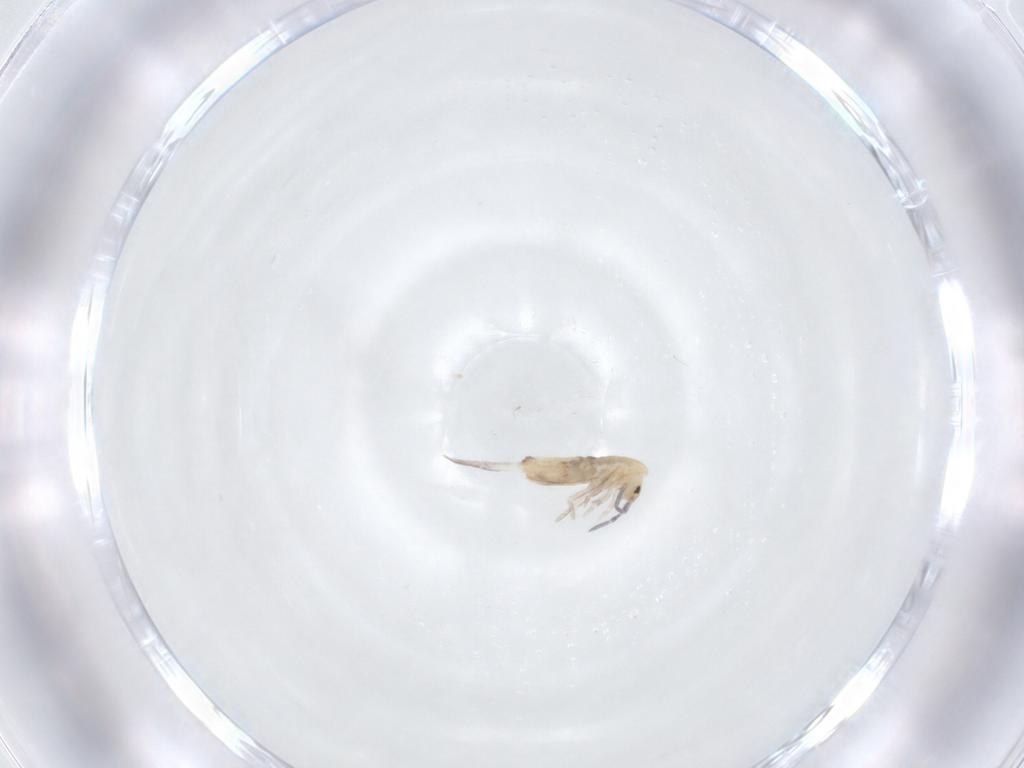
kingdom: Animalia
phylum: Arthropoda
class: Collembola
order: Entomobryomorpha
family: Entomobryidae
